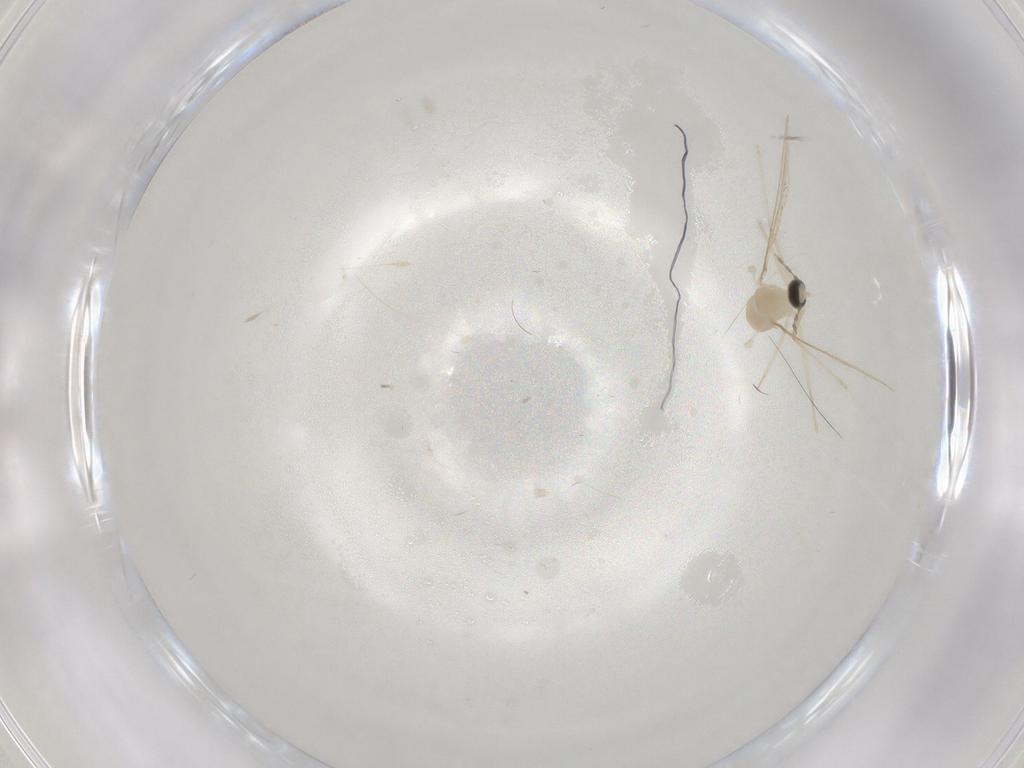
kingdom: Animalia
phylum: Arthropoda
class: Insecta
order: Diptera
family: Cecidomyiidae
